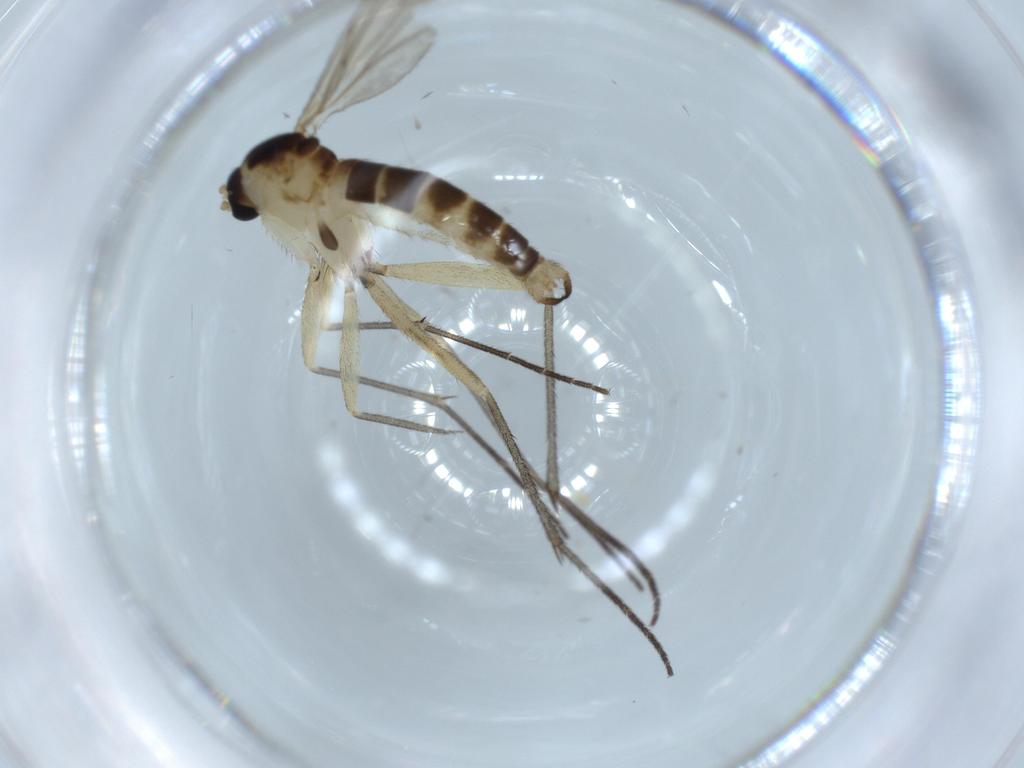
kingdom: Animalia
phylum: Arthropoda
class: Insecta
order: Diptera
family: Sciaridae
